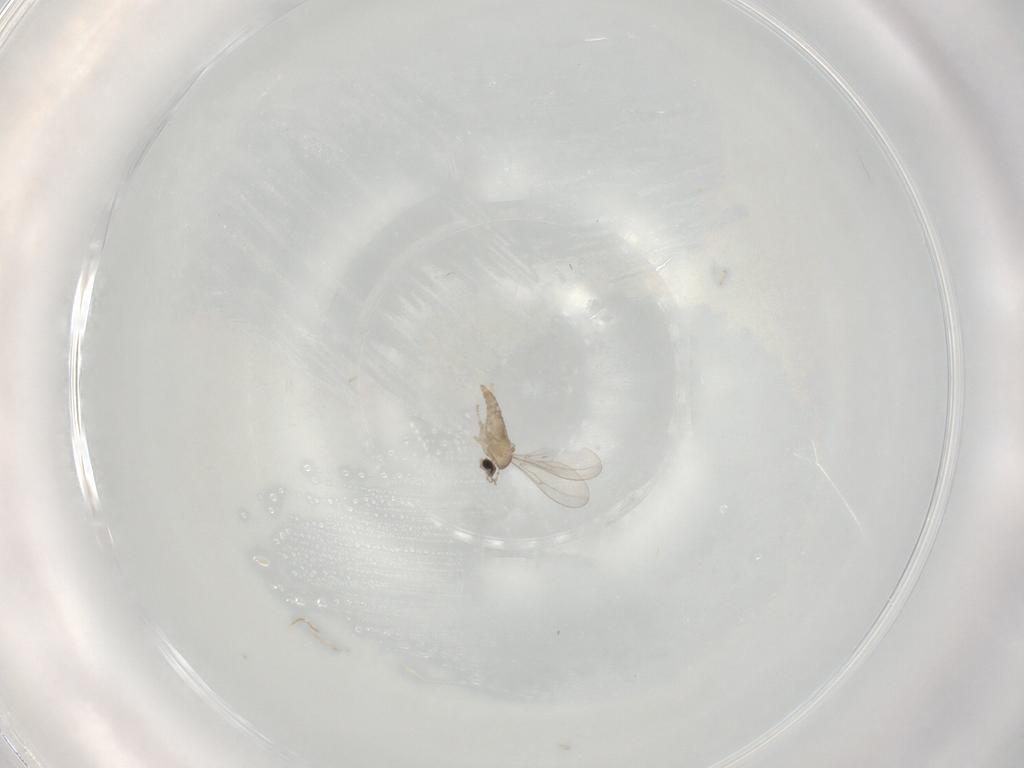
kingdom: Animalia
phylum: Arthropoda
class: Insecta
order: Diptera
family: Cecidomyiidae
